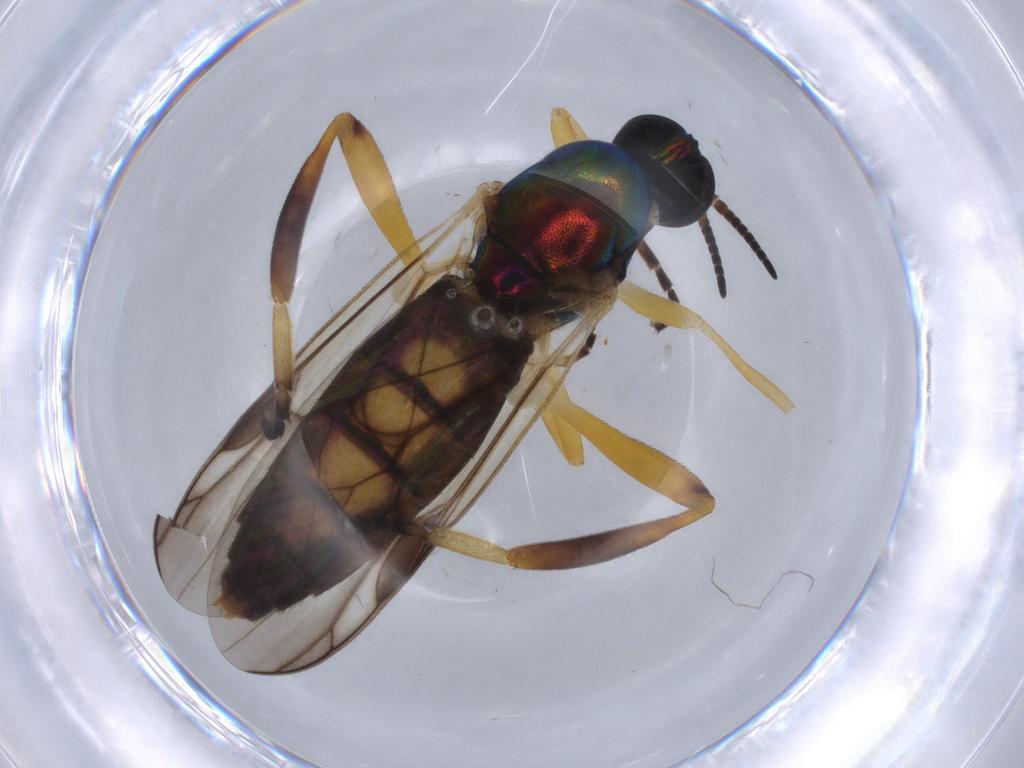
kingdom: Animalia
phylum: Arthropoda
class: Insecta
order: Diptera
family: Stratiomyidae
